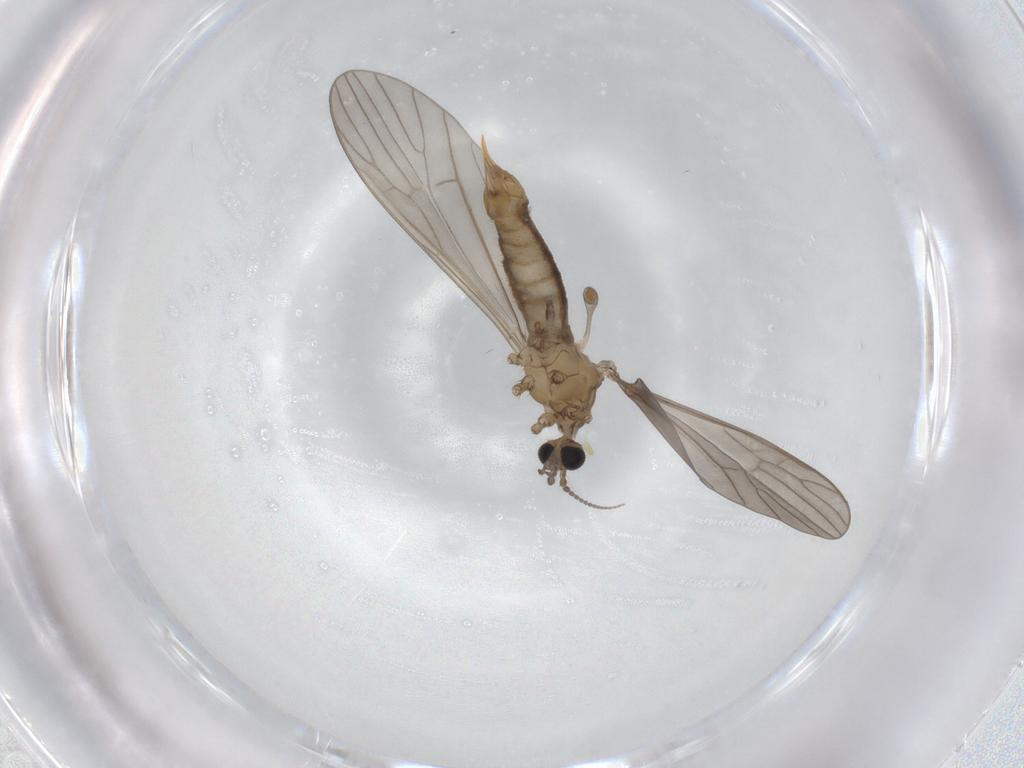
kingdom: Animalia
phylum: Arthropoda
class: Insecta
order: Diptera
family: Limoniidae
